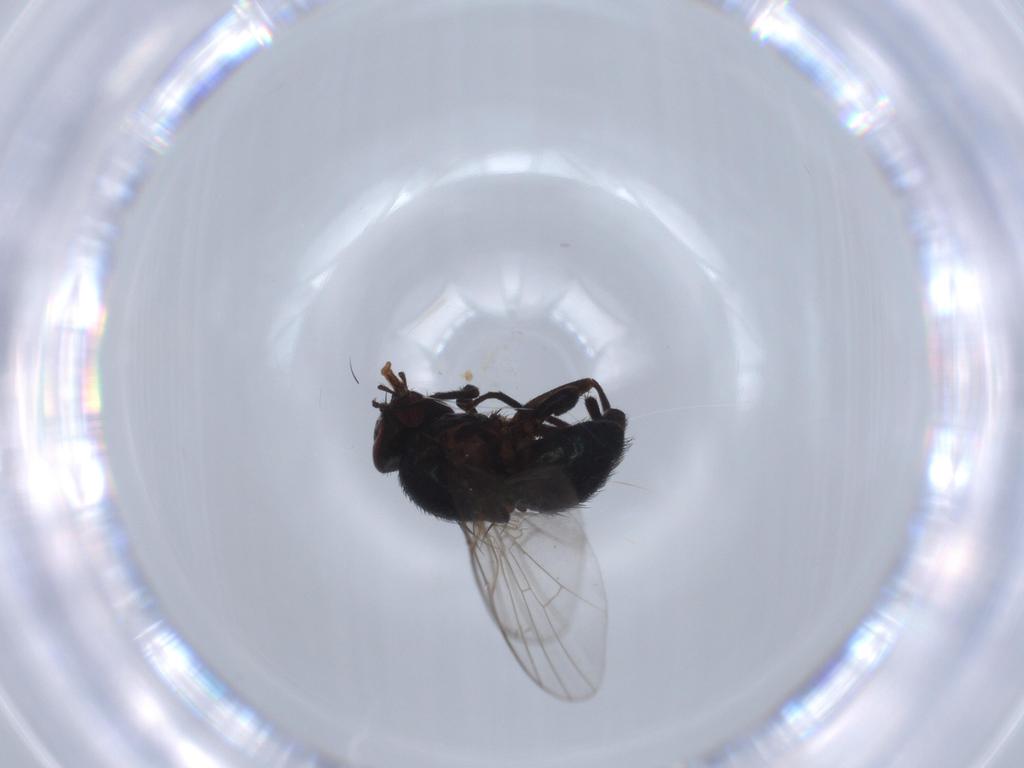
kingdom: Animalia
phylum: Arthropoda
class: Insecta
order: Diptera
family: Agromyzidae
